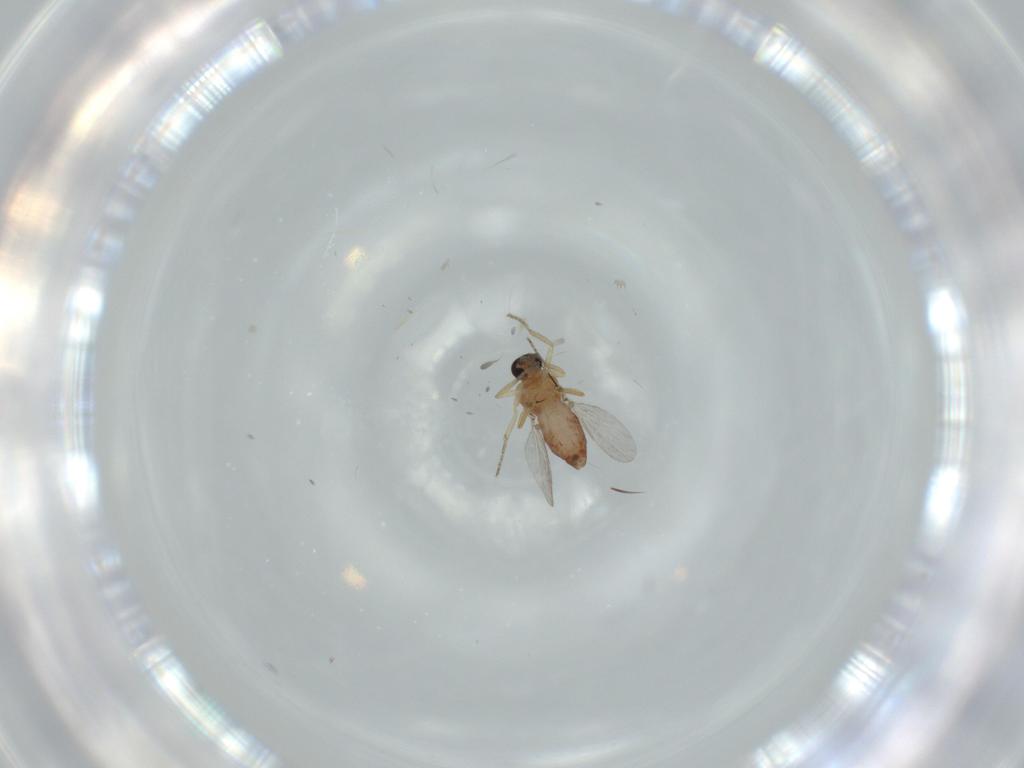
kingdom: Animalia
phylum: Arthropoda
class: Insecta
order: Diptera
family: Ceratopogonidae
